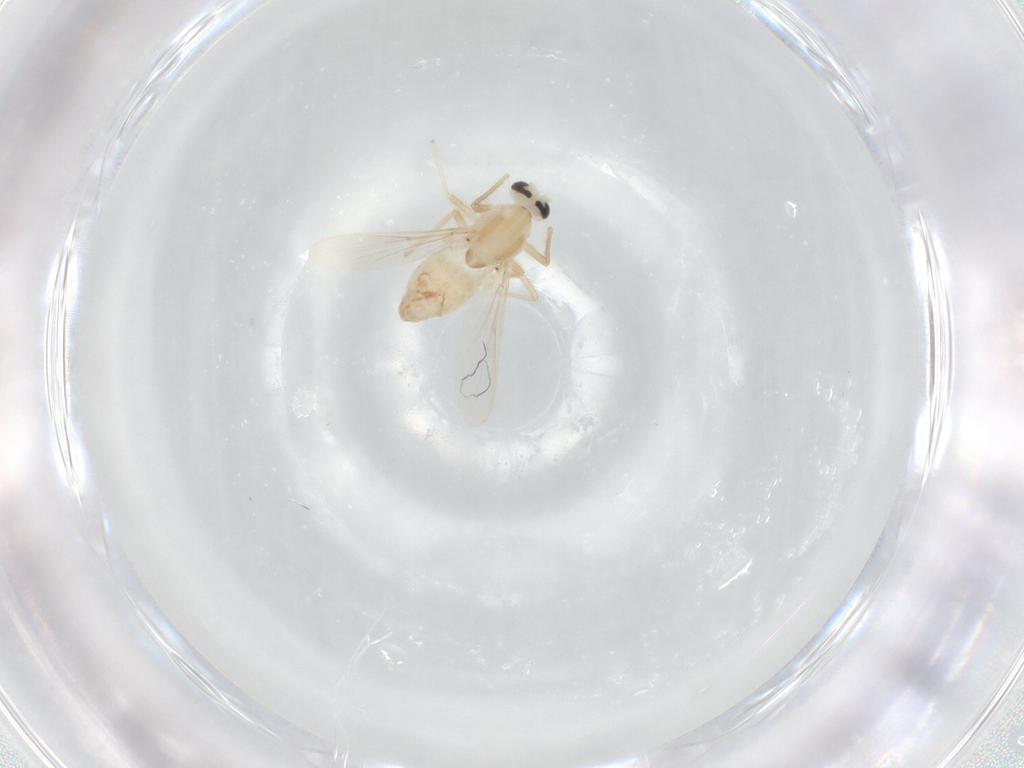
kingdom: Animalia
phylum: Arthropoda
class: Insecta
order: Diptera
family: Chironomidae
